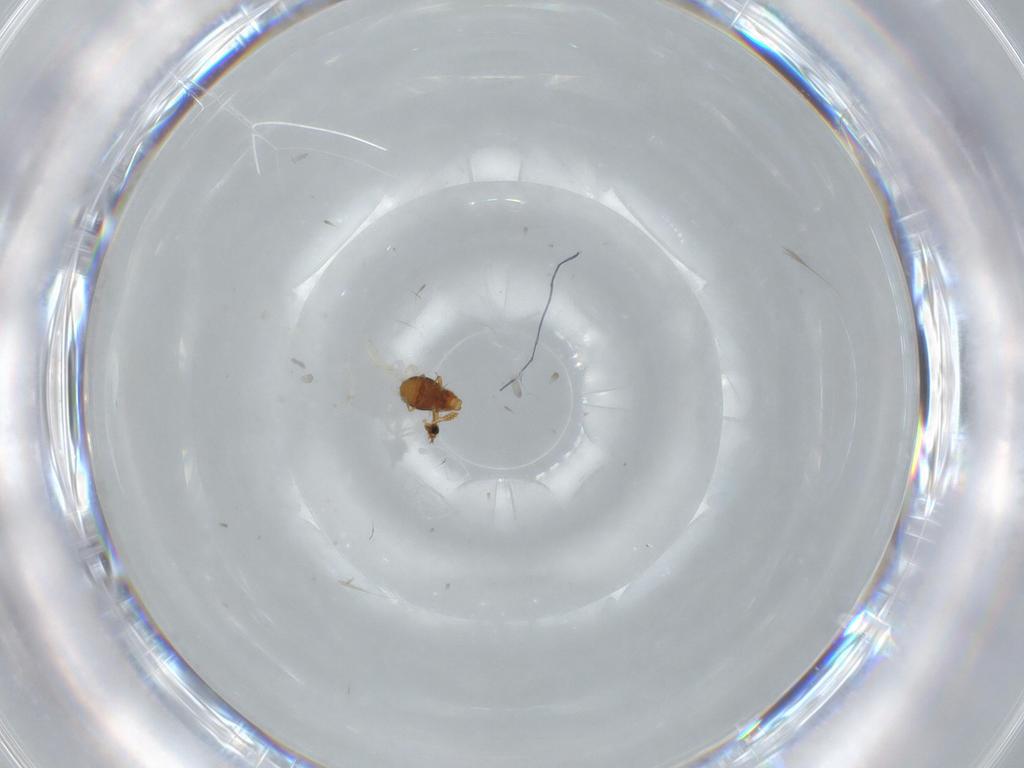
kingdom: Animalia
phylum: Arthropoda
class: Insecta
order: Coleoptera
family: Staphylinidae
